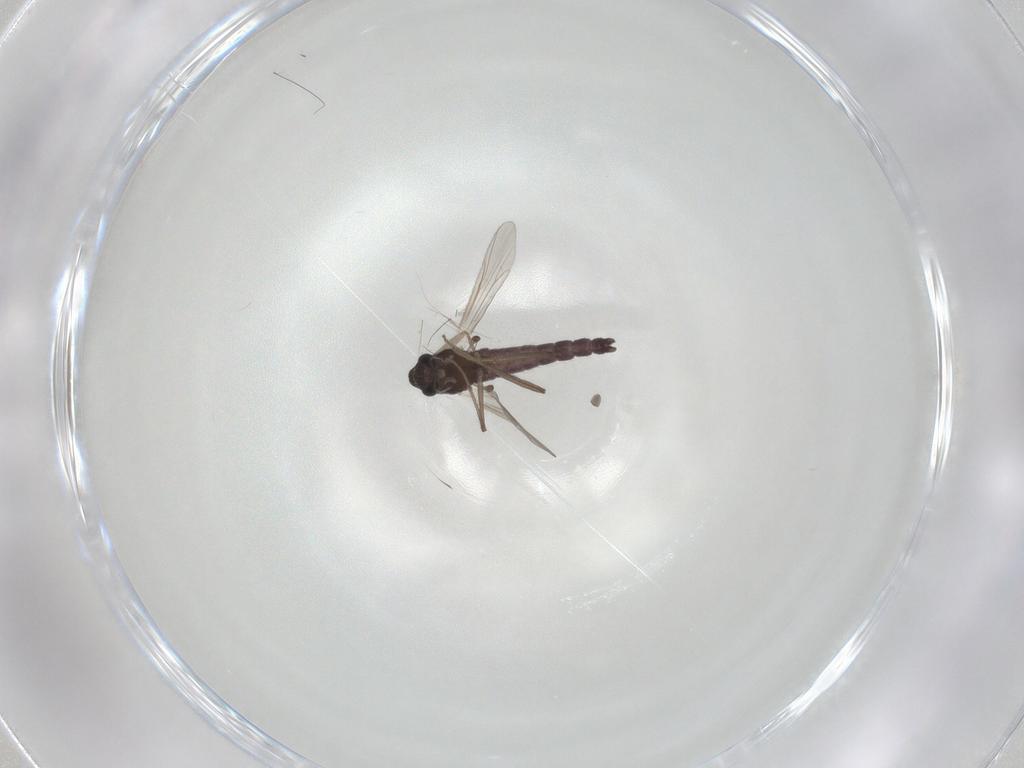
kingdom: Animalia
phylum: Arthropoda
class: Insecta
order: Diptera
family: Chironomidae
